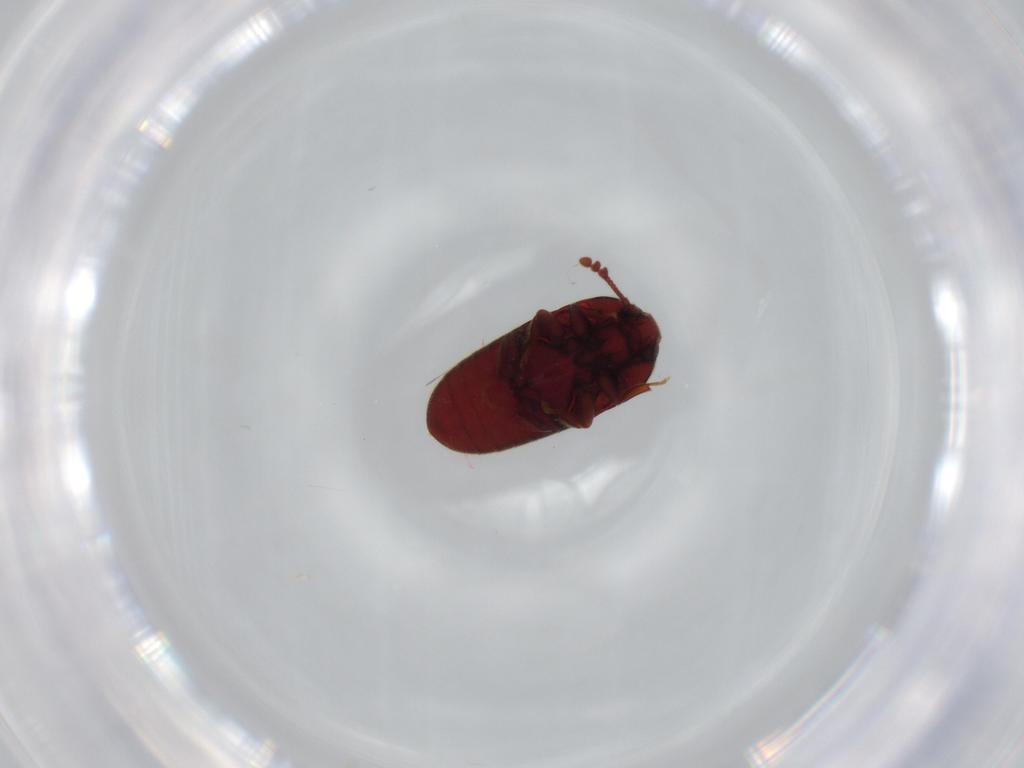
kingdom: Animalia
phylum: Arthropoda
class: Insecta
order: Coleoptera
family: Throscidae
